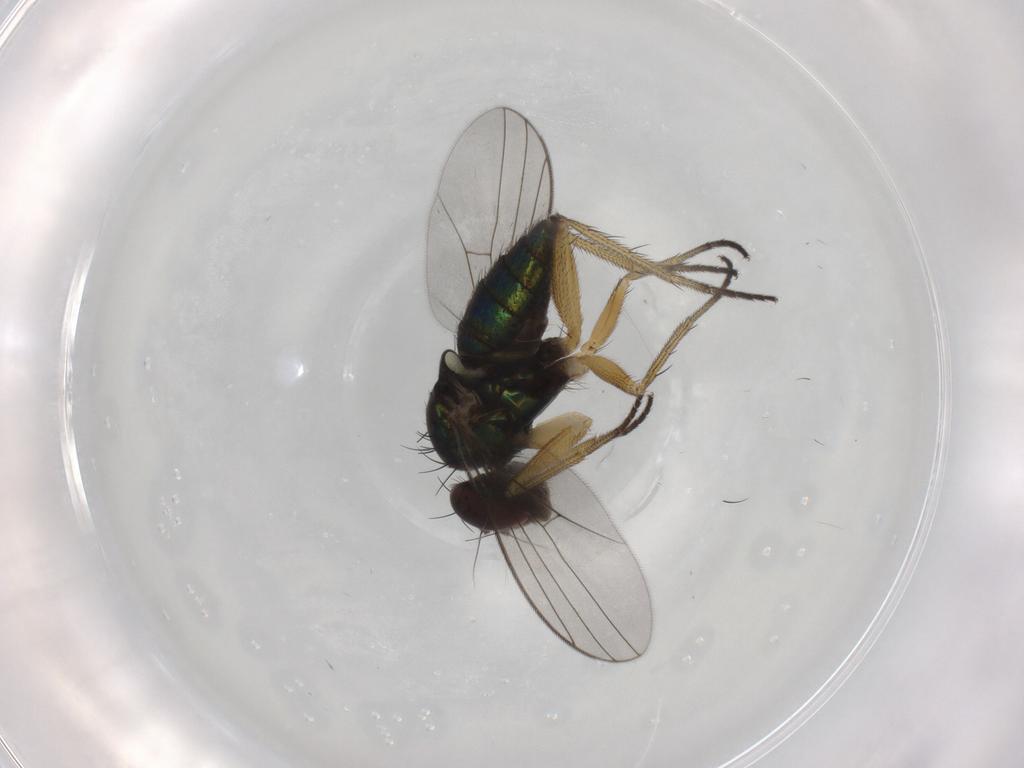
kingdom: Animalia
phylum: Arthropoda
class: Insecta
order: Diptera
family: Dolichopodidae
